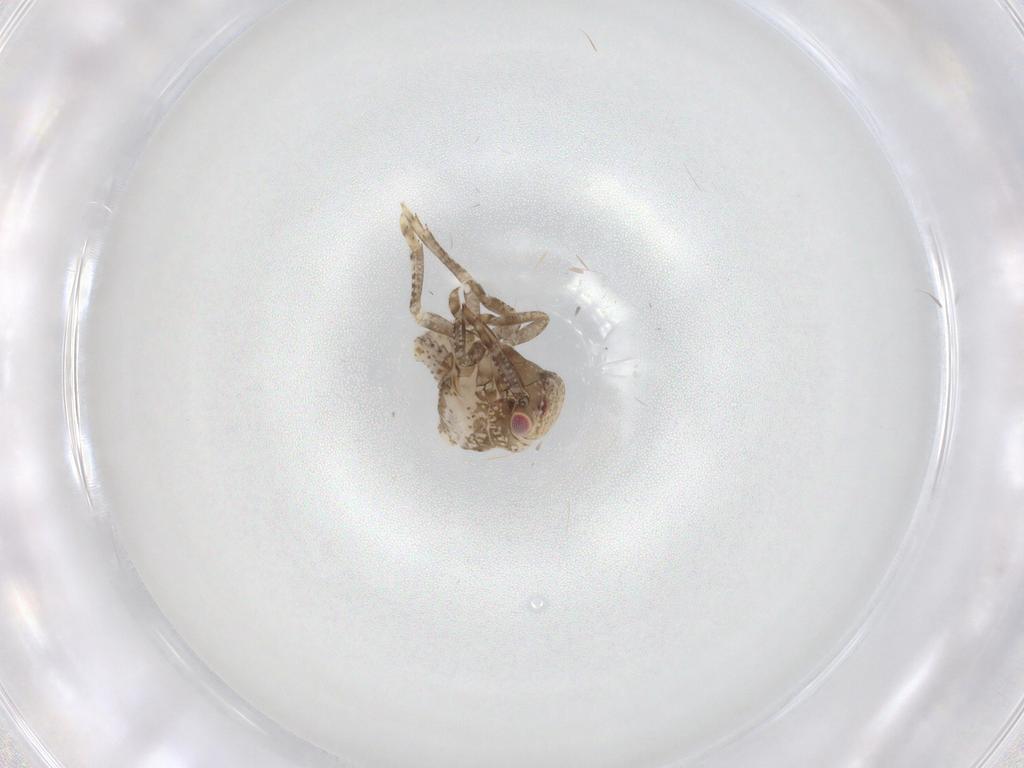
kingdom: Animalia
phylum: Arthropoda
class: Insecta
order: Hemiptera
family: Acanaloniidae
